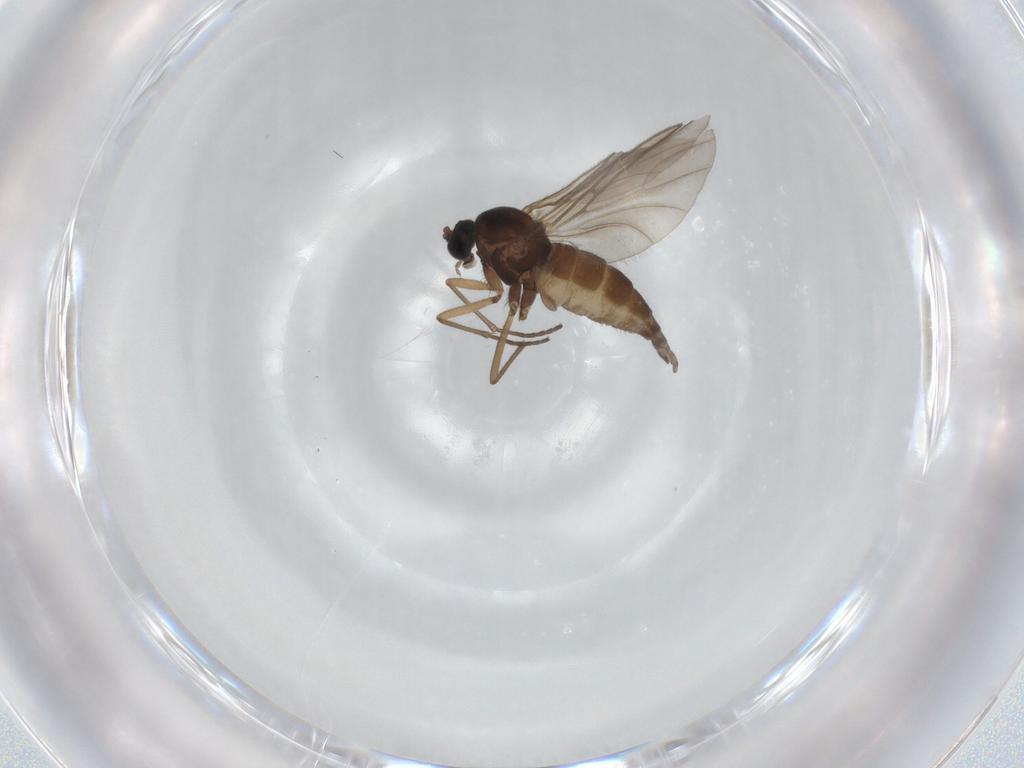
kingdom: Animalia
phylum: Arthropoda
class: Insecta
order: Diptera
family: Sciaridae
